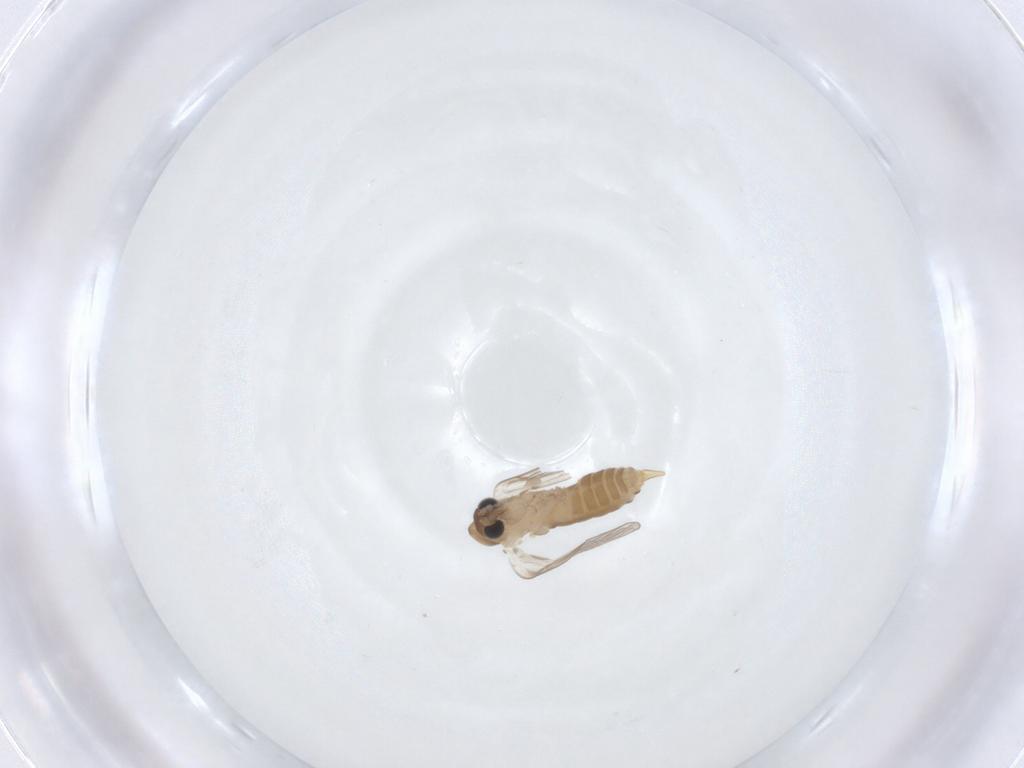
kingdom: Animalia
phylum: Arthropoda
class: Insecta
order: Diptera
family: Psychodidae
